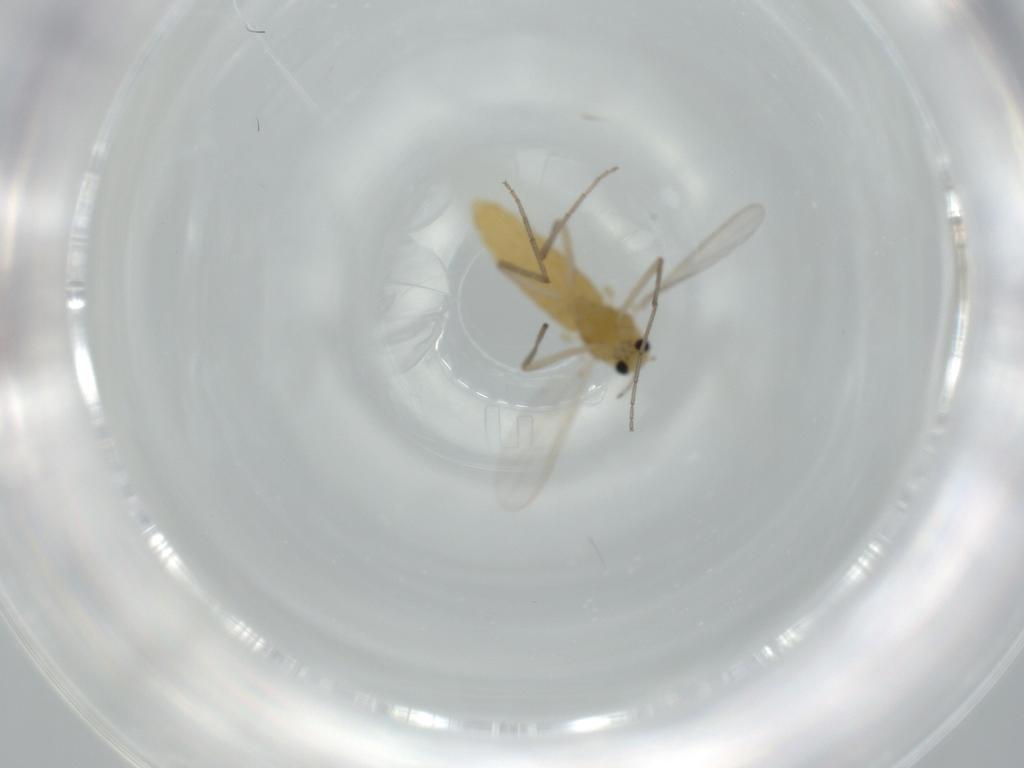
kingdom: Animalia
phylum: Arthropoda
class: Insecta
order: Diptera
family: Chironomidae
